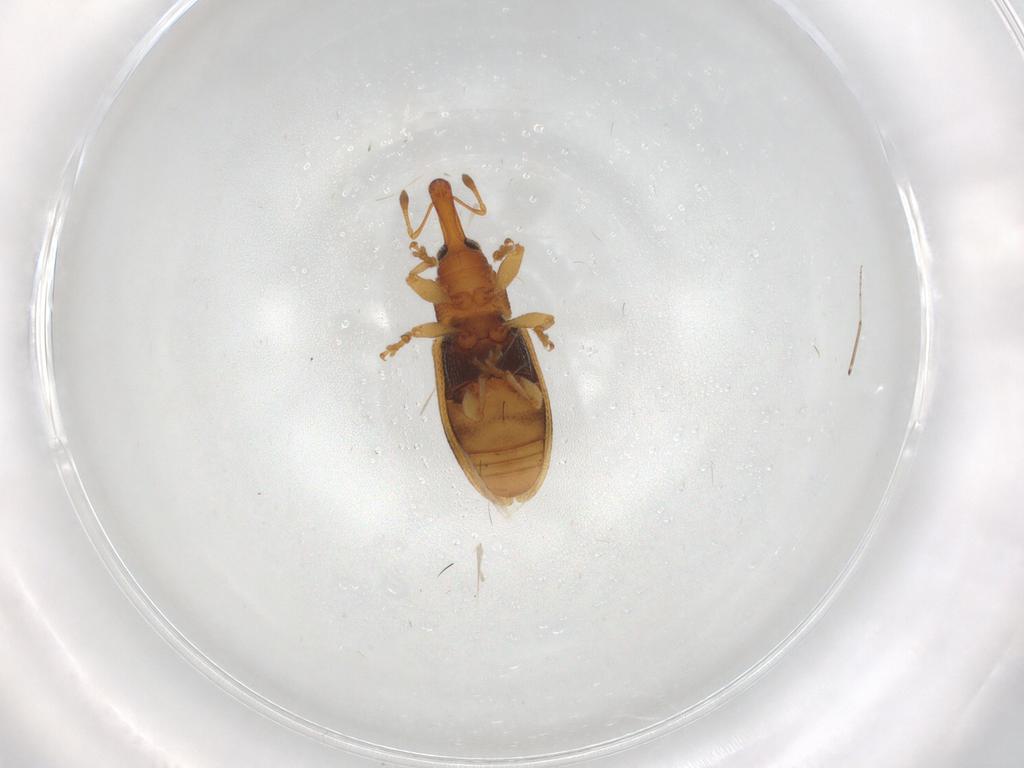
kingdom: Animalia
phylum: Arthropoda
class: Insecta
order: Coleoptera
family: Curculionidae
